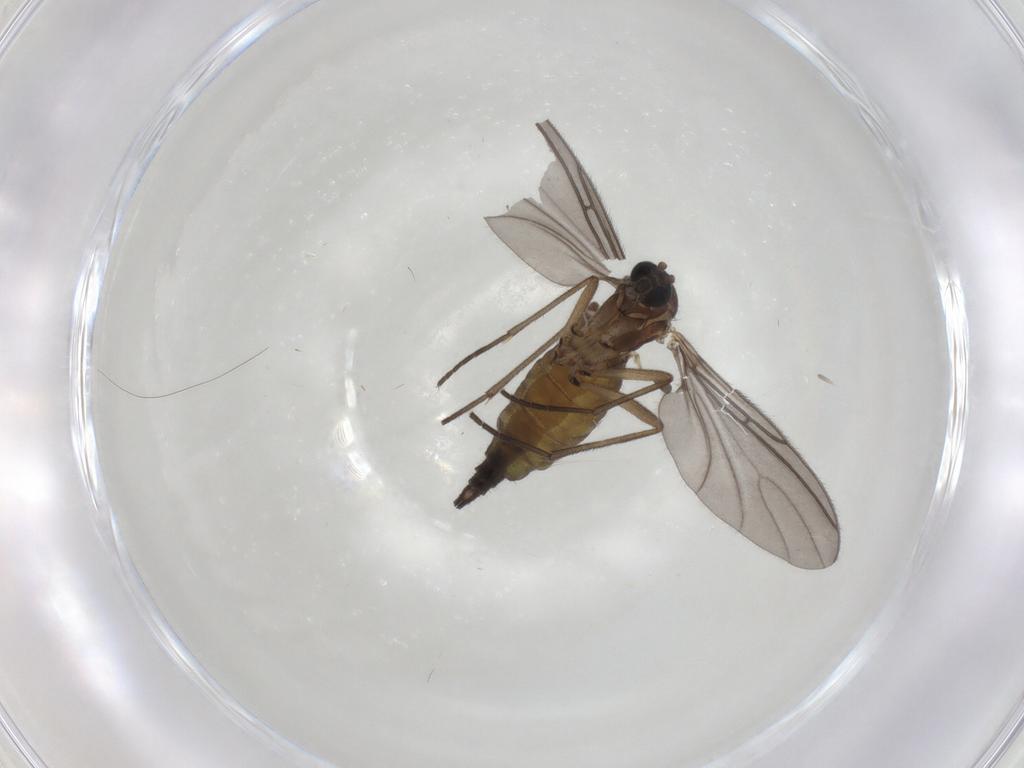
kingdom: Animalia
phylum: Arthropoda
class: Insecta
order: Diptera
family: Sciaridae
